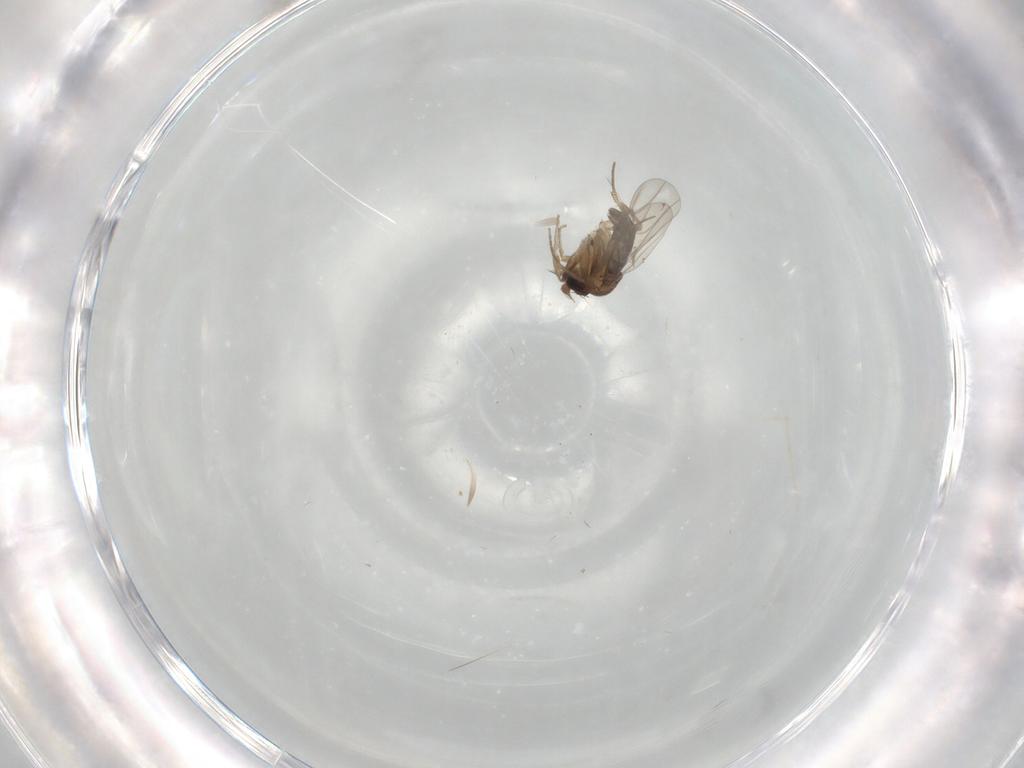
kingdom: Animalia
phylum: Arthropoda
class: Insecta
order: Diptera
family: Phoridae
